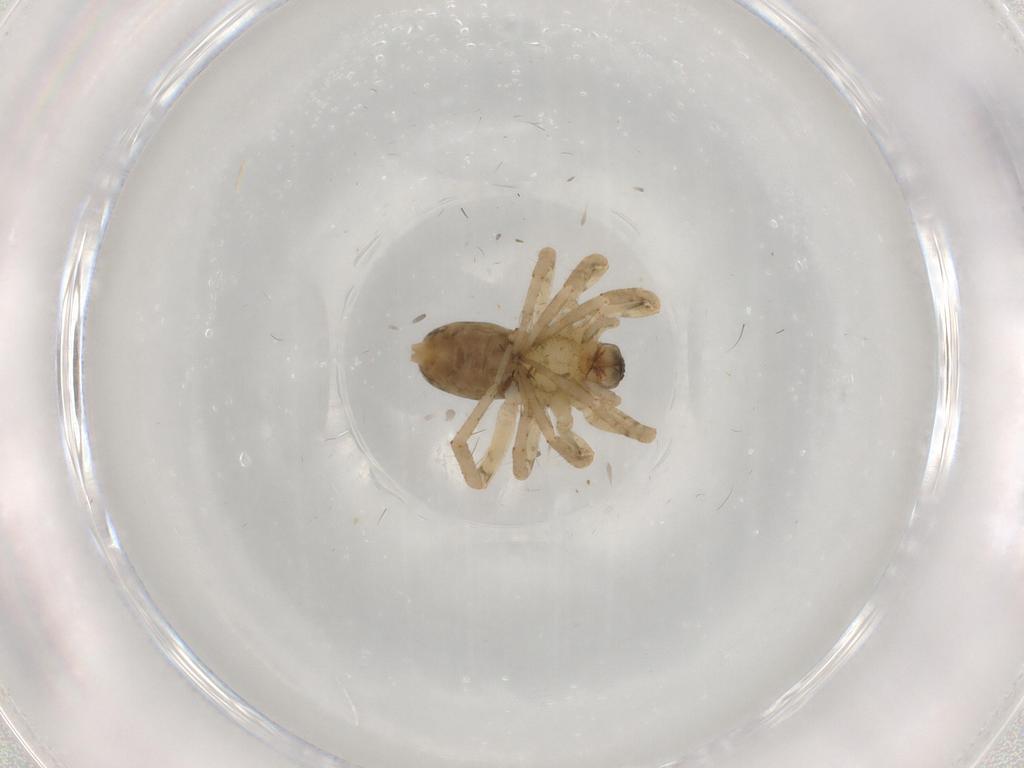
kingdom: Animalia
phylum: Arthropoda
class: Arachnida
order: Araneae
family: Anyphaenidae
